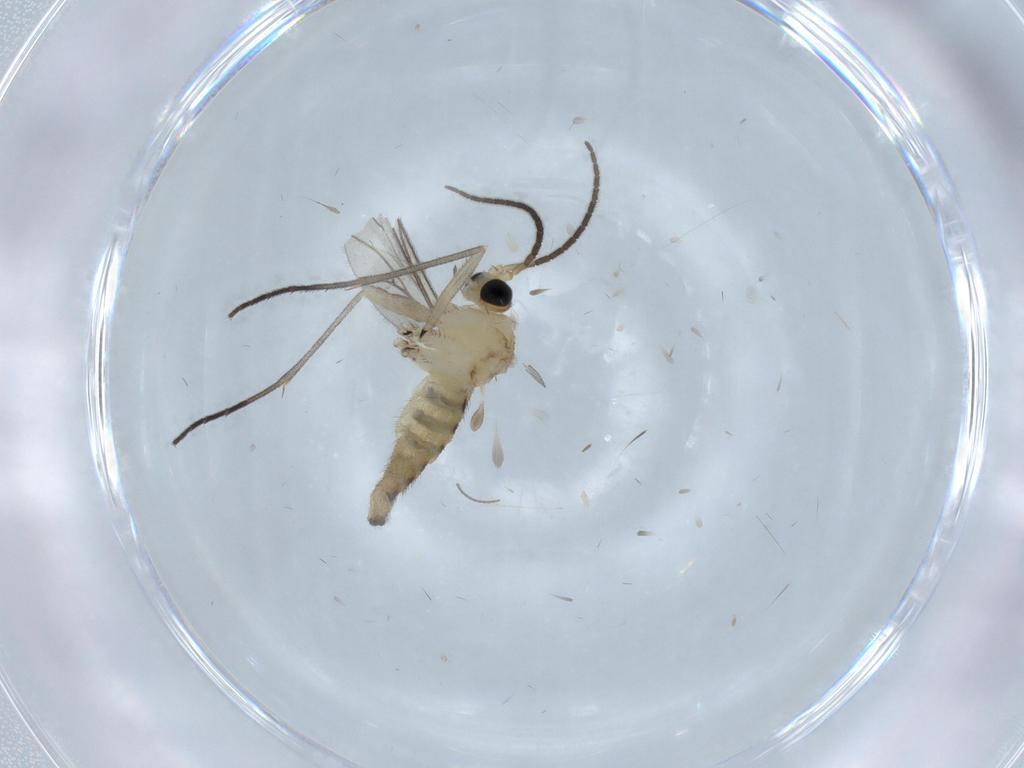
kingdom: Animalia
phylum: Arthropoda
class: Insecta
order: Diptera
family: Sciaridae
